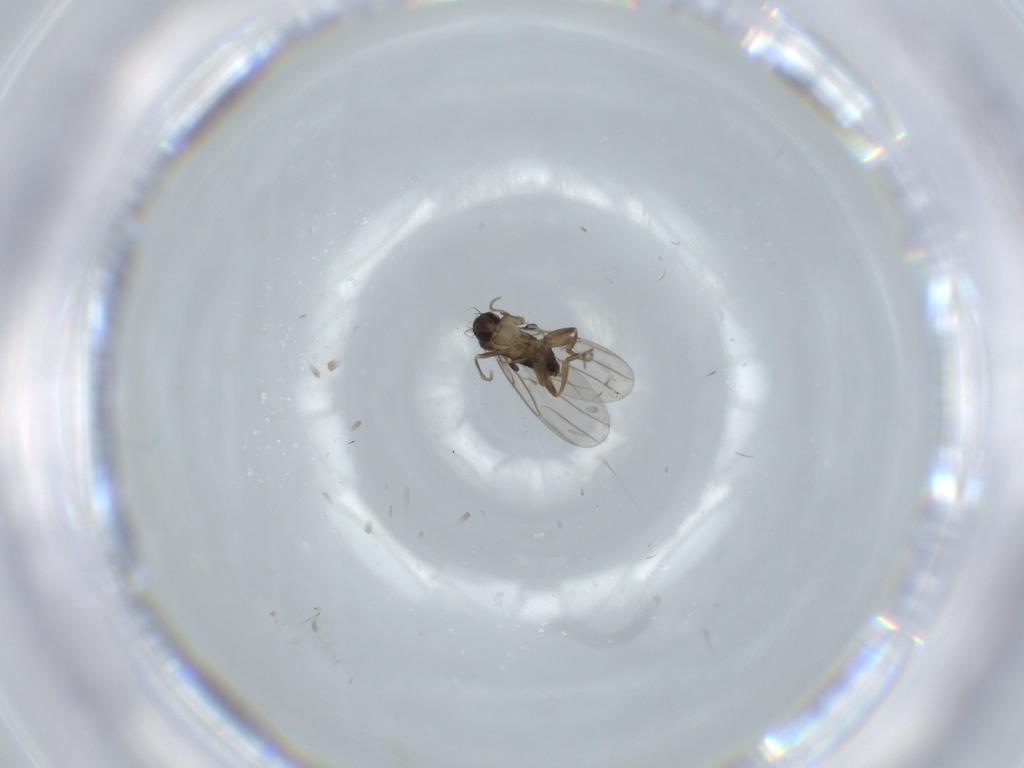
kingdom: Animalia
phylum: Arthropoda
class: Insecta
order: Diptera
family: Phoridae
